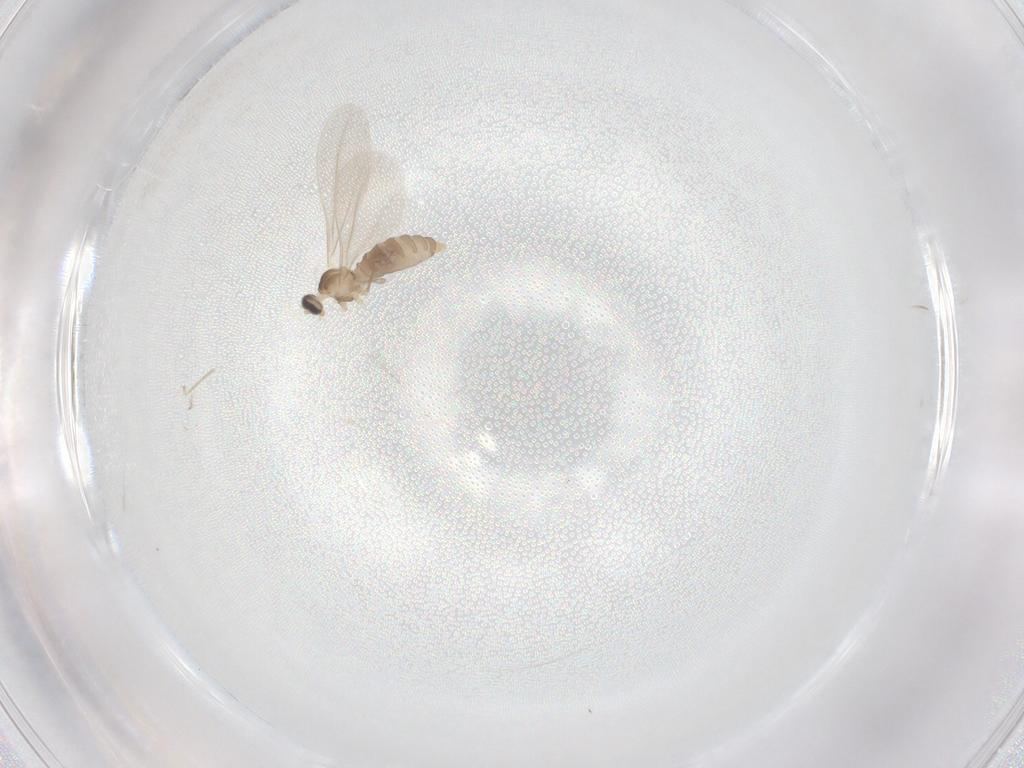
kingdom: Animalia
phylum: Arthropoda
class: Insecta
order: Diptera
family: Cecidomyiidae
